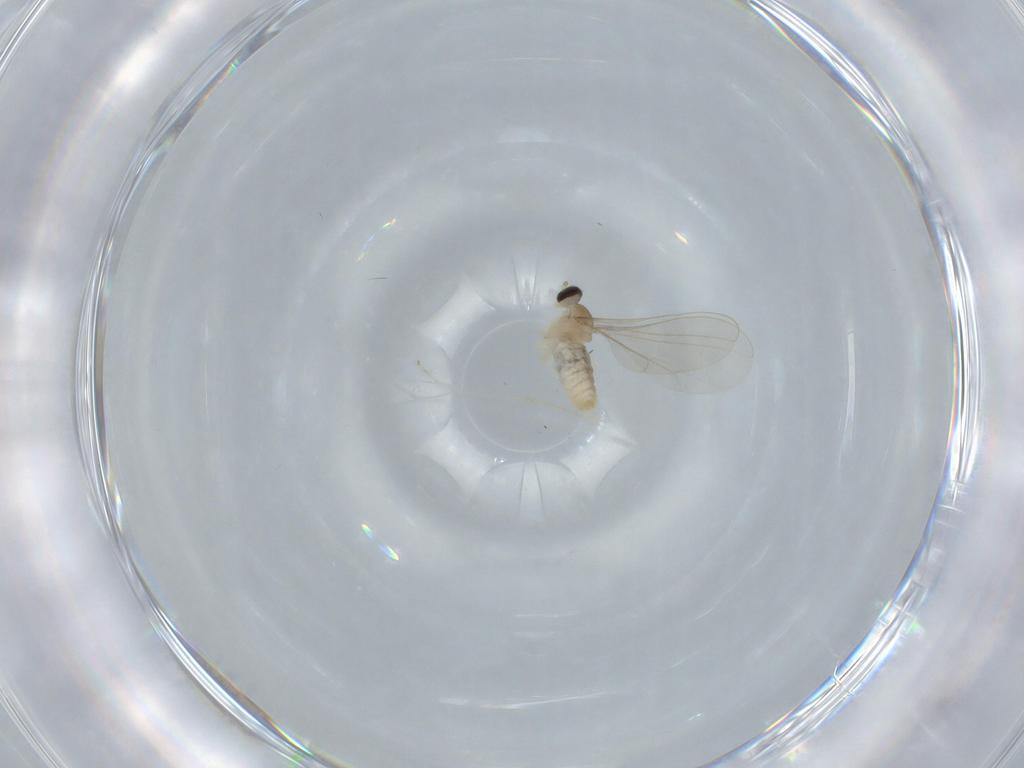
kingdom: Animalia
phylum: Arthropoda
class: Insecta
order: Diptera
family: Cecidomyiidae
